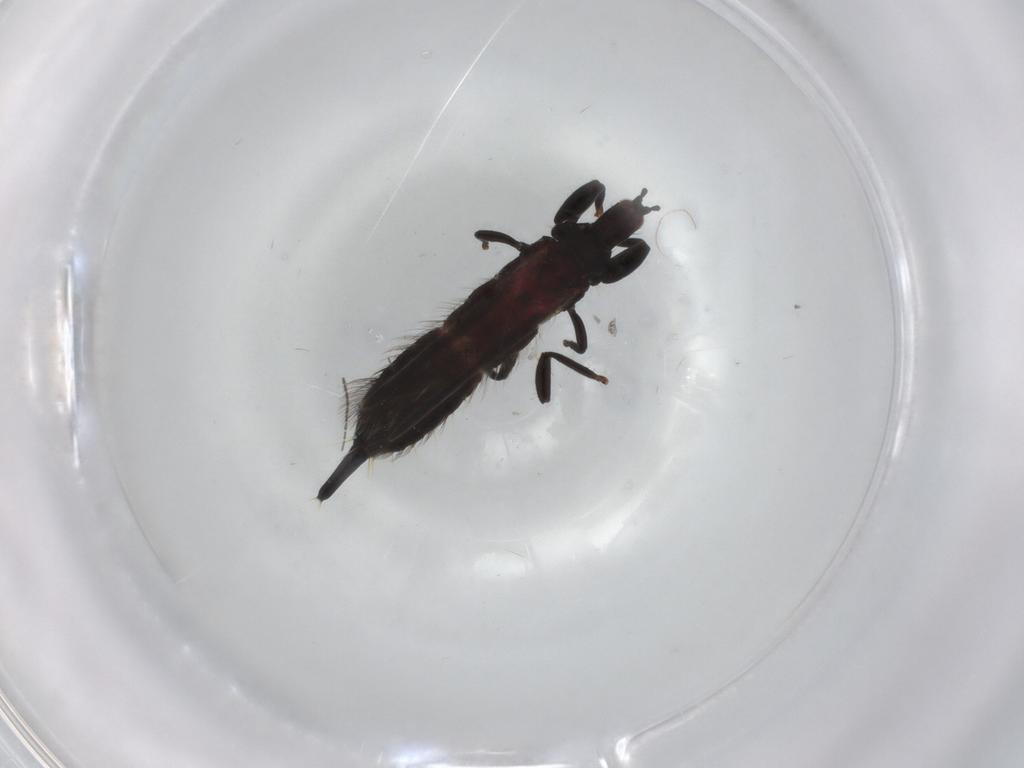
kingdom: Animalia
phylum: Arthropoda
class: Insecta
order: Thysanoptera
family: Phlaeothripidae
